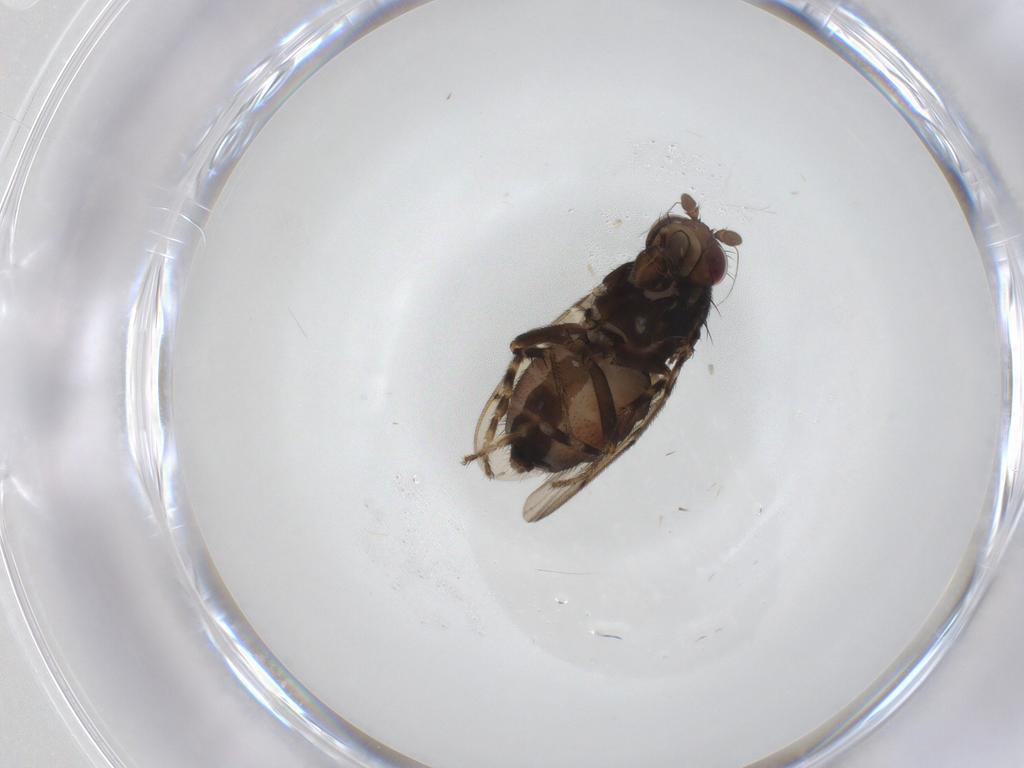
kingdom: Animalia
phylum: Arthropoda
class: Insecta
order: Diptera
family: Sphaeroceridae
